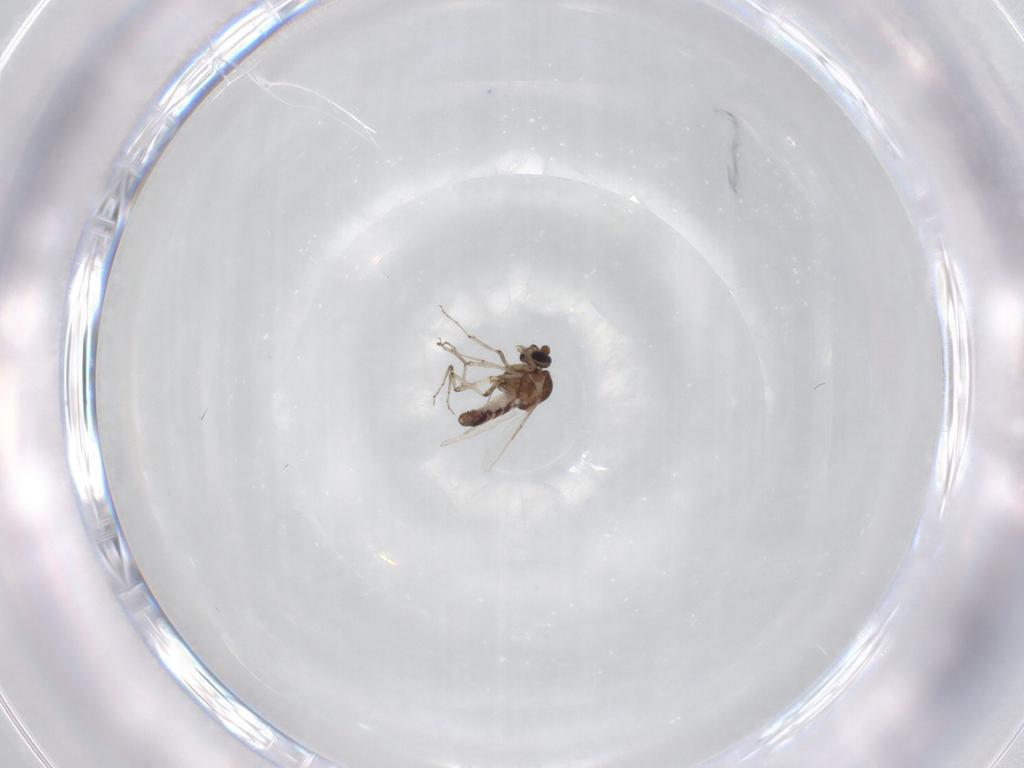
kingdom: Animalia
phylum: Arthropoda
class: Insecta
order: Diptera
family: Ceratopogonidae
